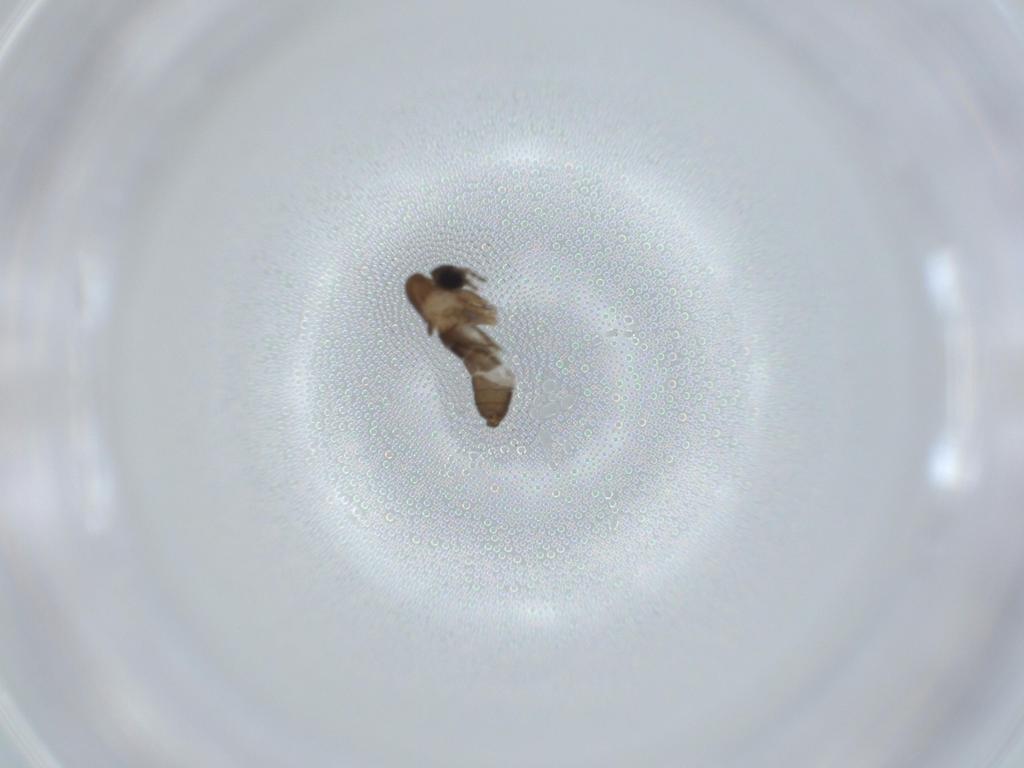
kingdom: Animalia
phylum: Arthropoda
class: Insecta
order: Diptera
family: Psychodidae
